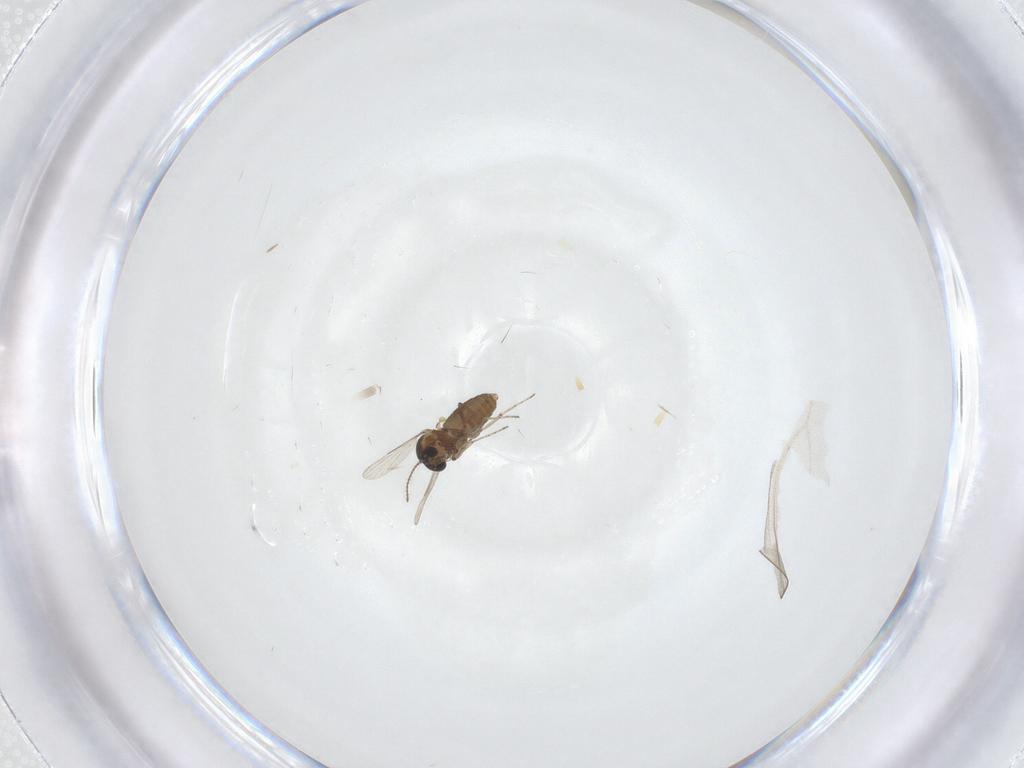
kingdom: Animalia
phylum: Arthropoda
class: Insecta
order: Diptera
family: Ceratopogonidae
